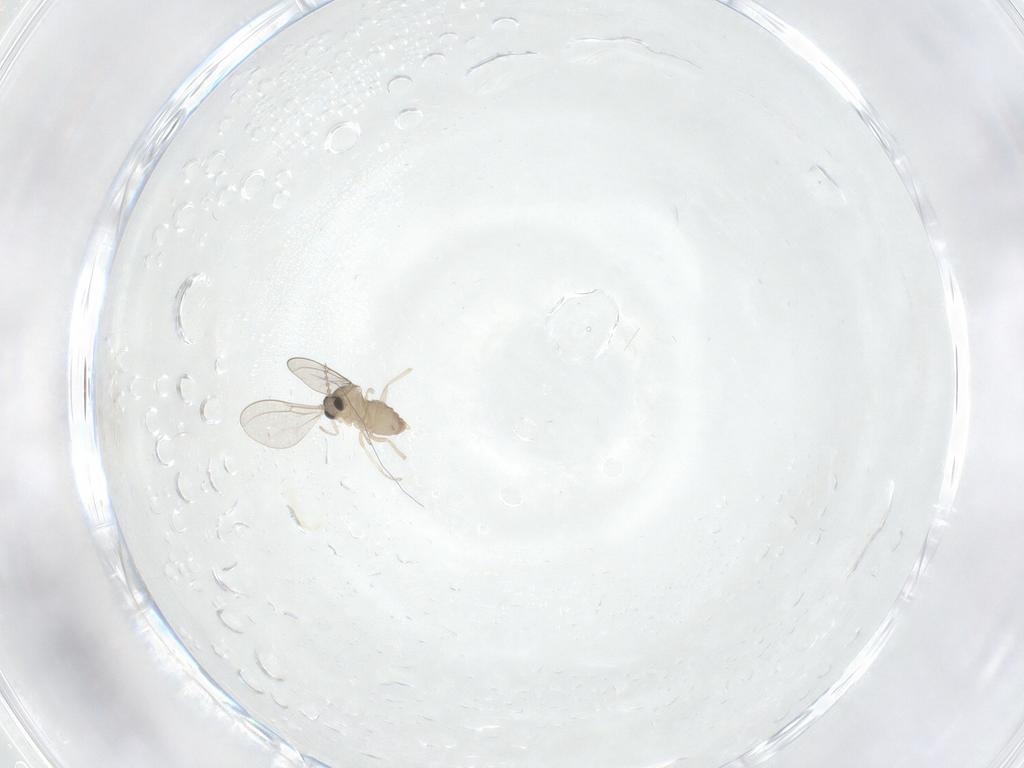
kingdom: Animalia
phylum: Arthropoda
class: Insecta
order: Diptera
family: Cecidomyiidae
